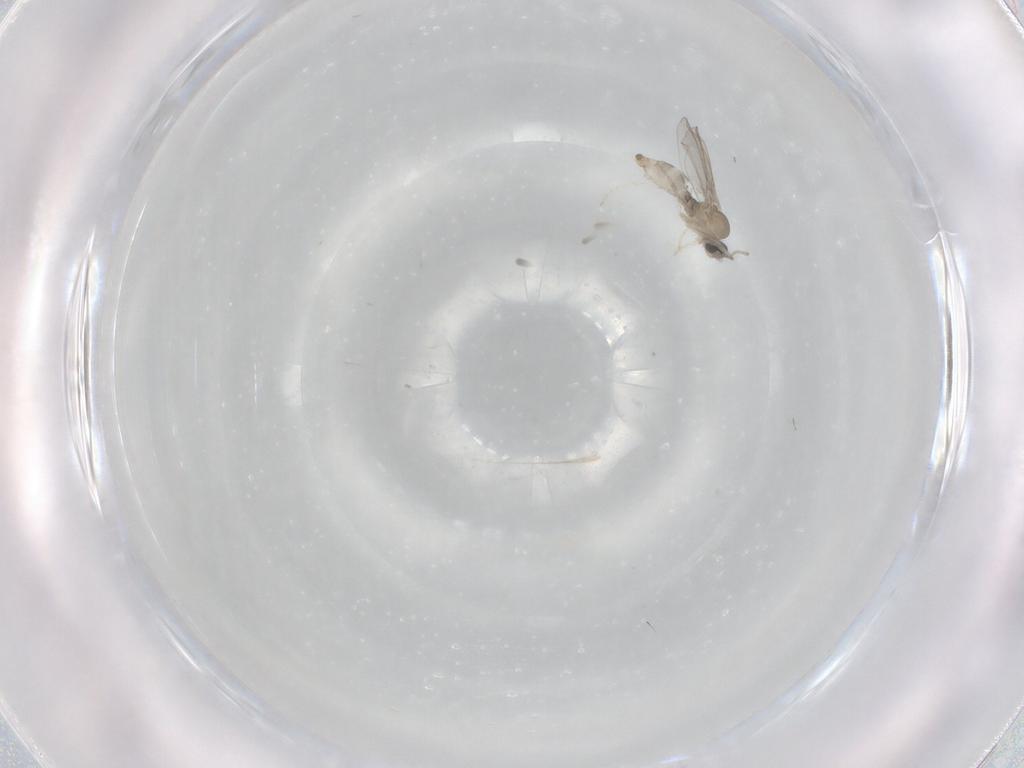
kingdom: Animalia
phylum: Arthropoda
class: Insecta
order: Diptera
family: Cecidomyiidae
